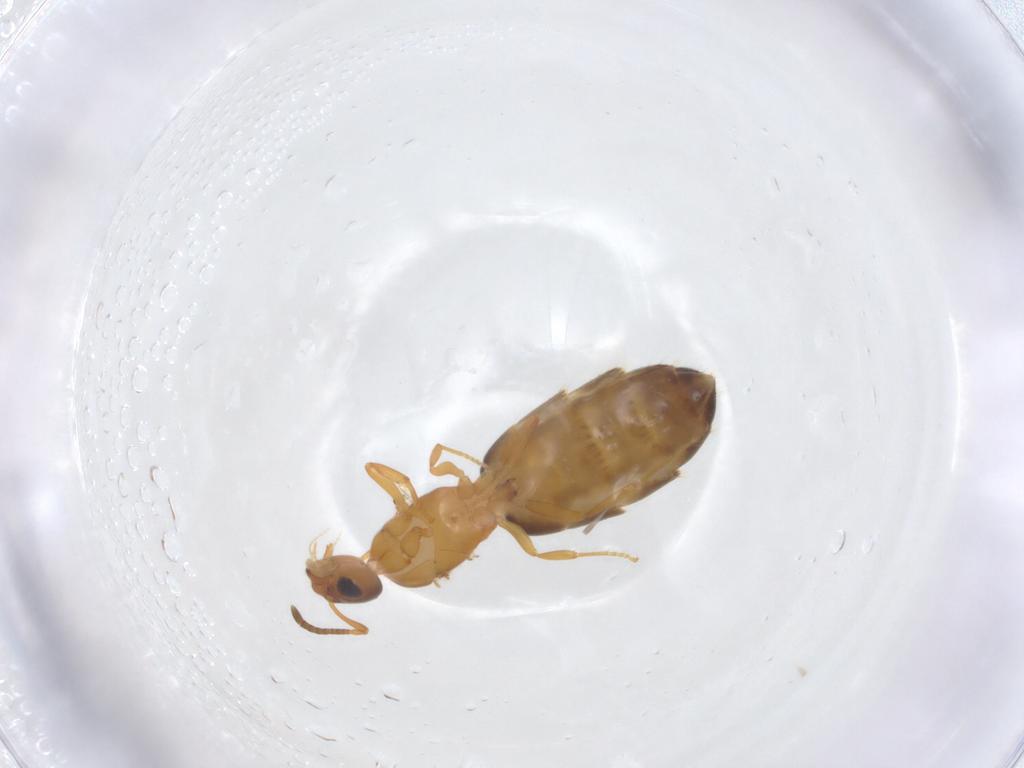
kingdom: Animalia
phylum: Arthropoda
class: Insecta
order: Hymenoptera
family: Formicidae
